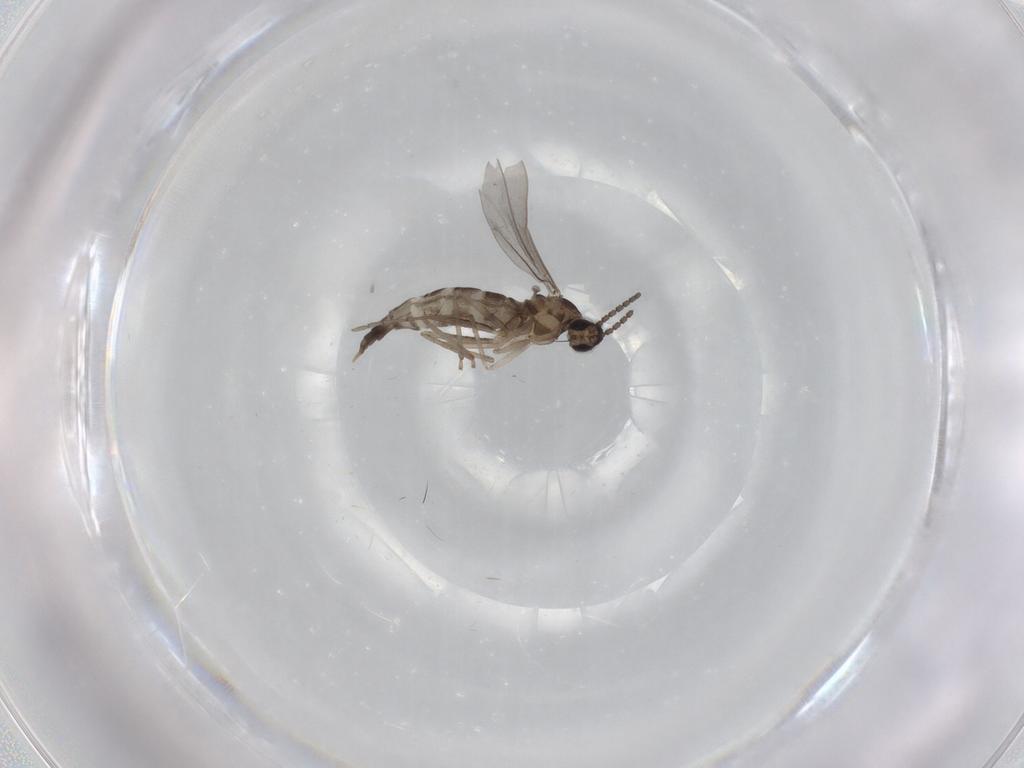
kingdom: Animalia
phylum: Arthropoda
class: Insecta
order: Diptera
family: Cecidomyiidae
